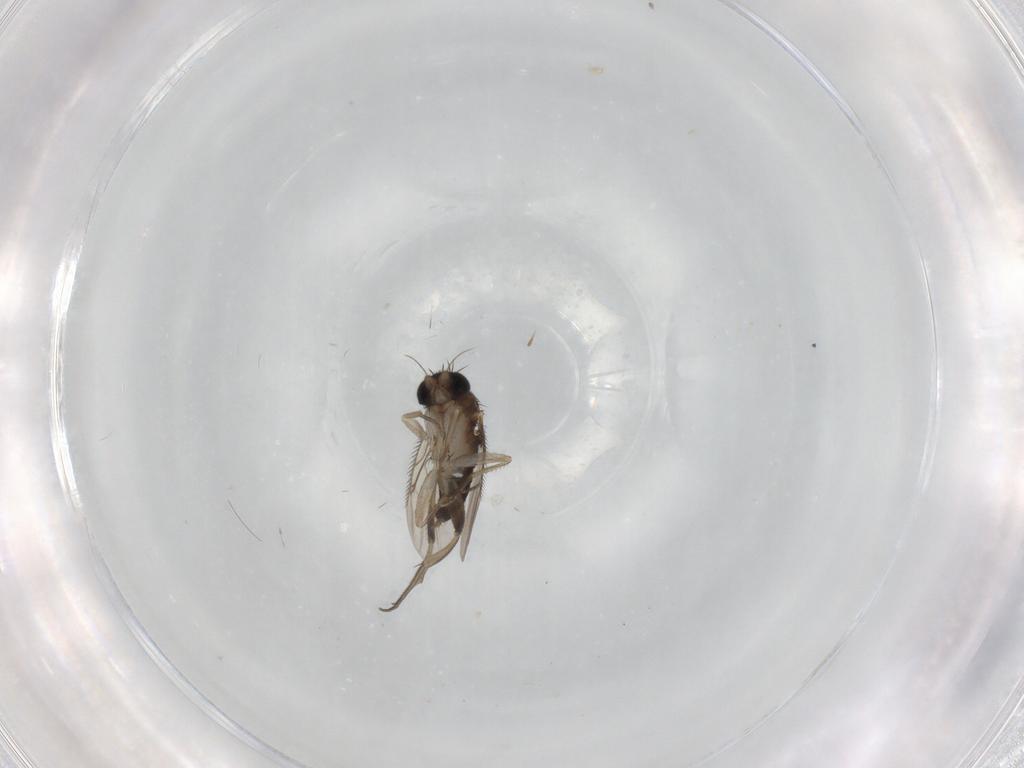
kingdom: Animalia
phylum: Arthropoda
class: Insecta
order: Diptera
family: Phoridae
